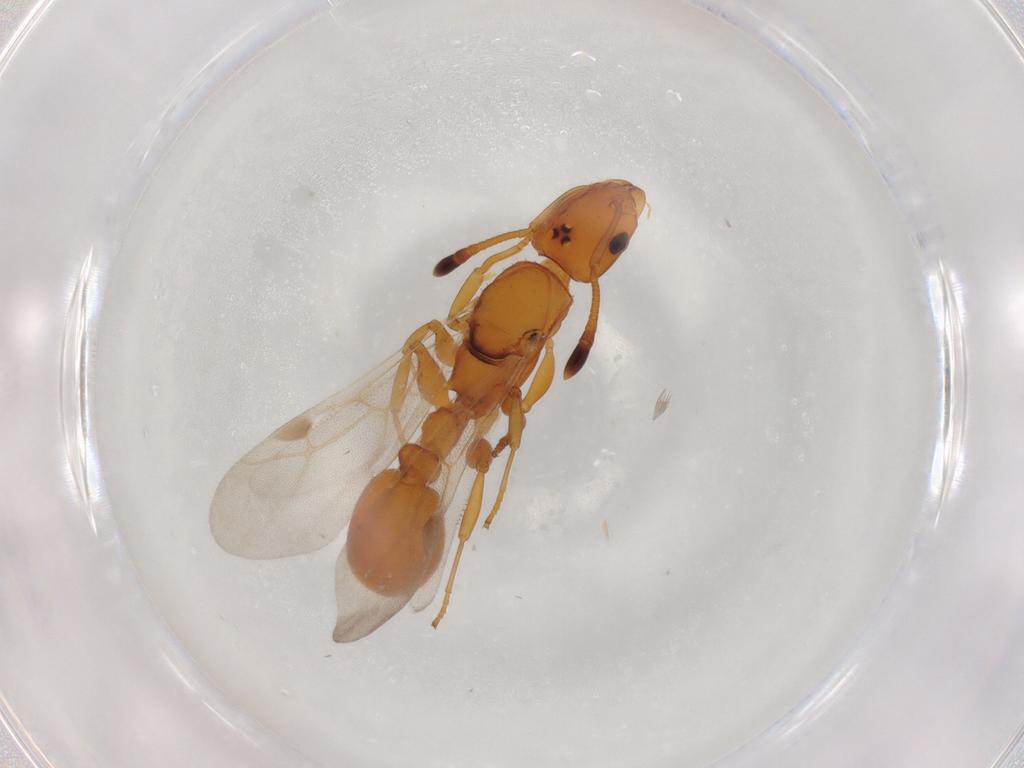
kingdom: Animalia
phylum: Arthropoda
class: Insecta
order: Hymenoptera
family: Formicidae
